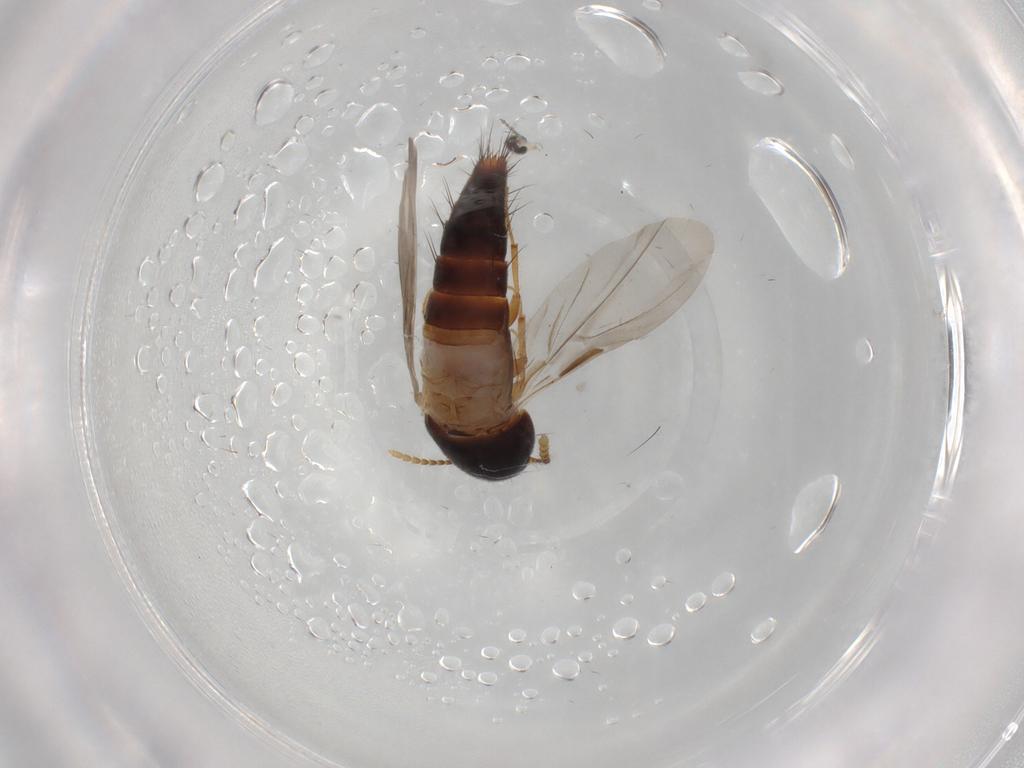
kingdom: Animalia
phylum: Arthropoda
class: Insecta
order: Coleoptera
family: Staphylinidae
